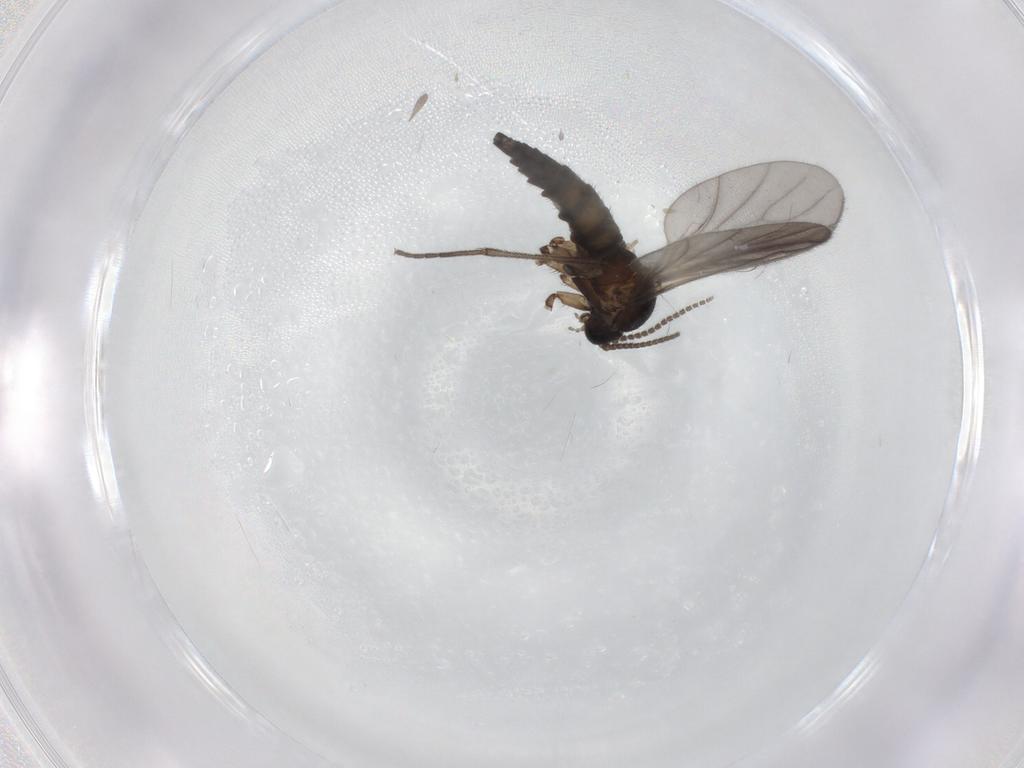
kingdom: Animalia
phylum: Arthropoda
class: Insecta
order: Diptera
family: Sciaridae
